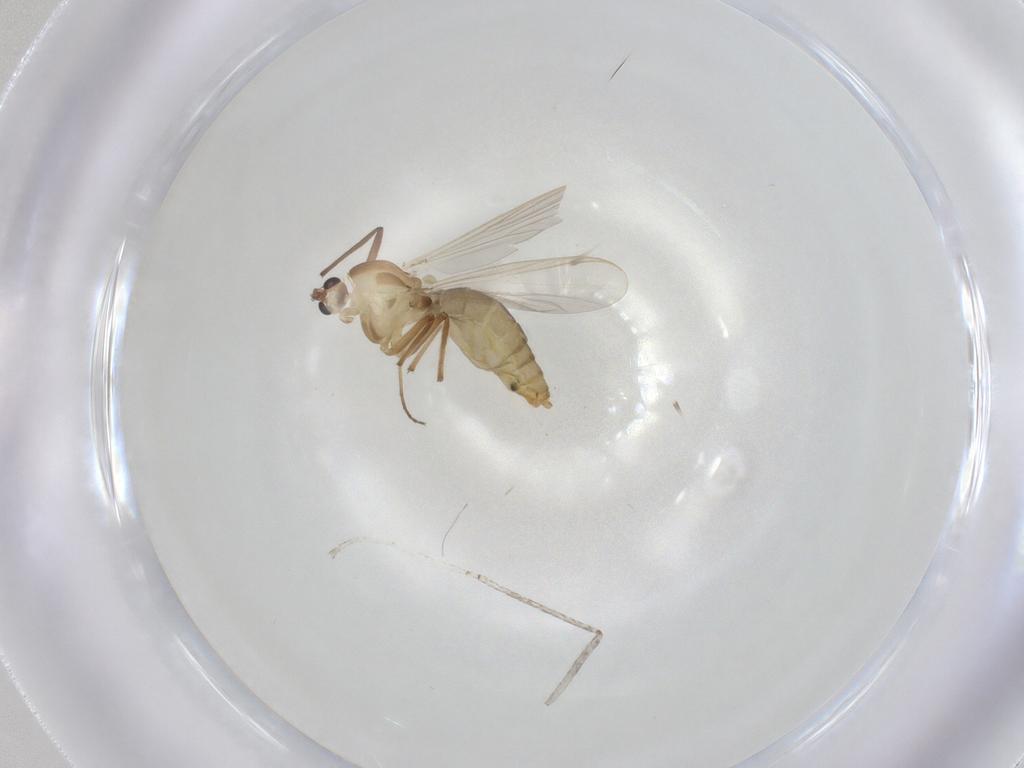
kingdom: Animalia
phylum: Arthropoda
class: Insecta
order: Diptera
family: Chironomidae
